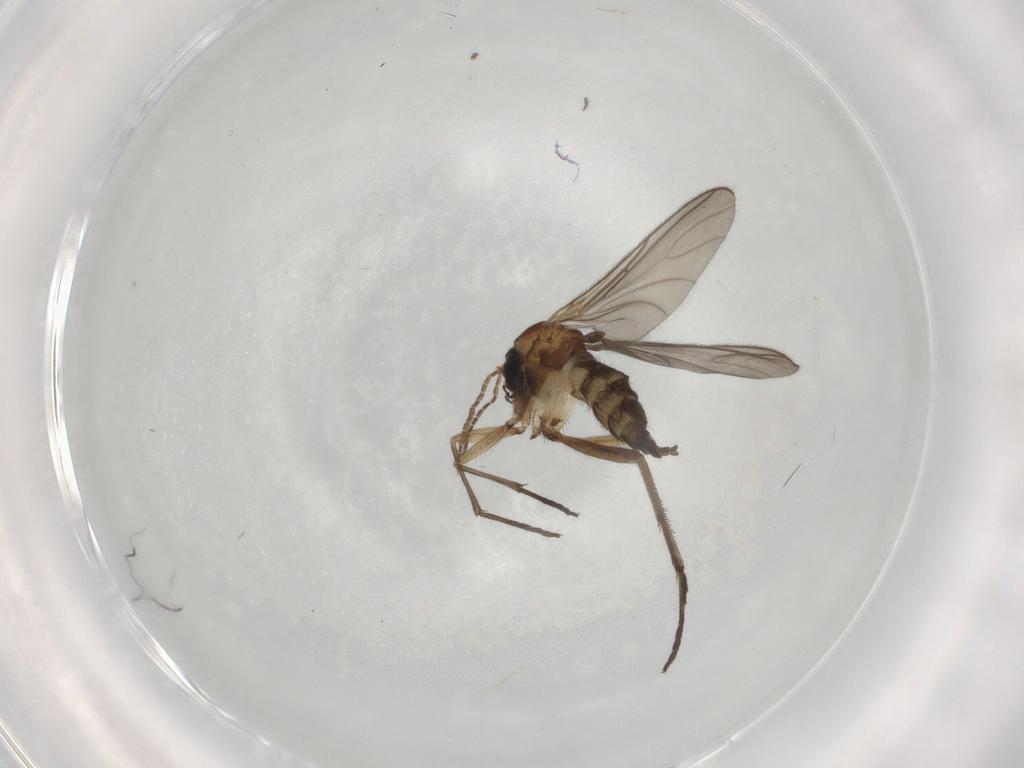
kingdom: Animalia
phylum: Arthropoda
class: Insecta
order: Diptera
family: Sciaridae
